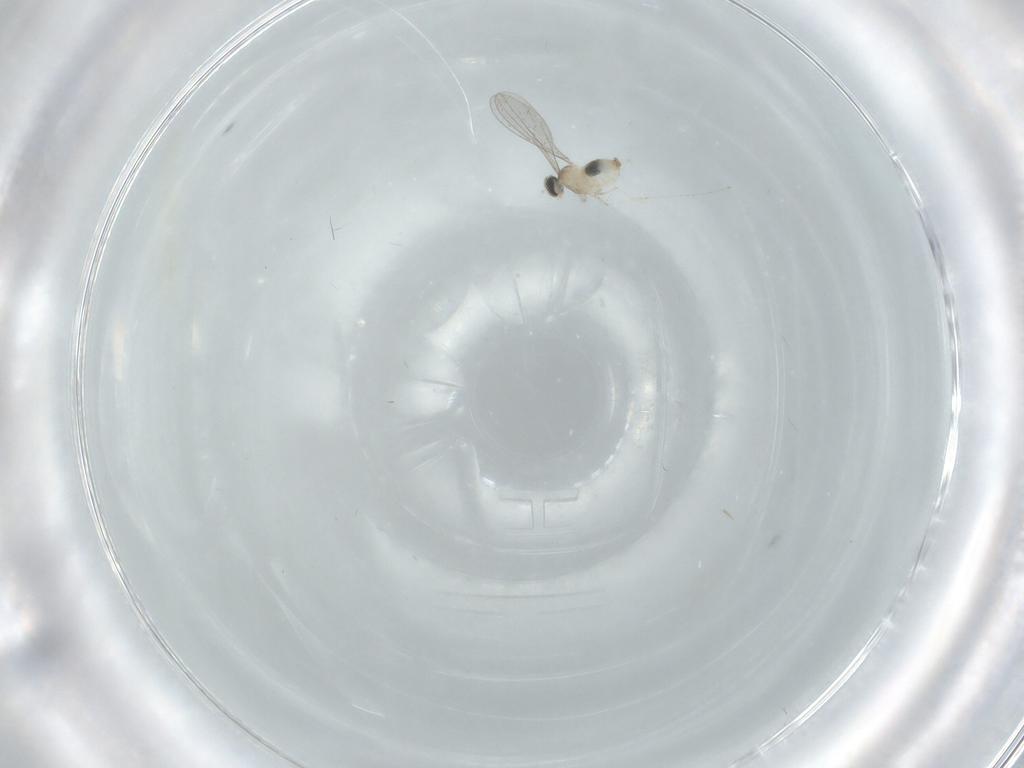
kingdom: Animalia
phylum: Arthropoda
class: Insecta
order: Diptera
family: Cecidomyiidae
